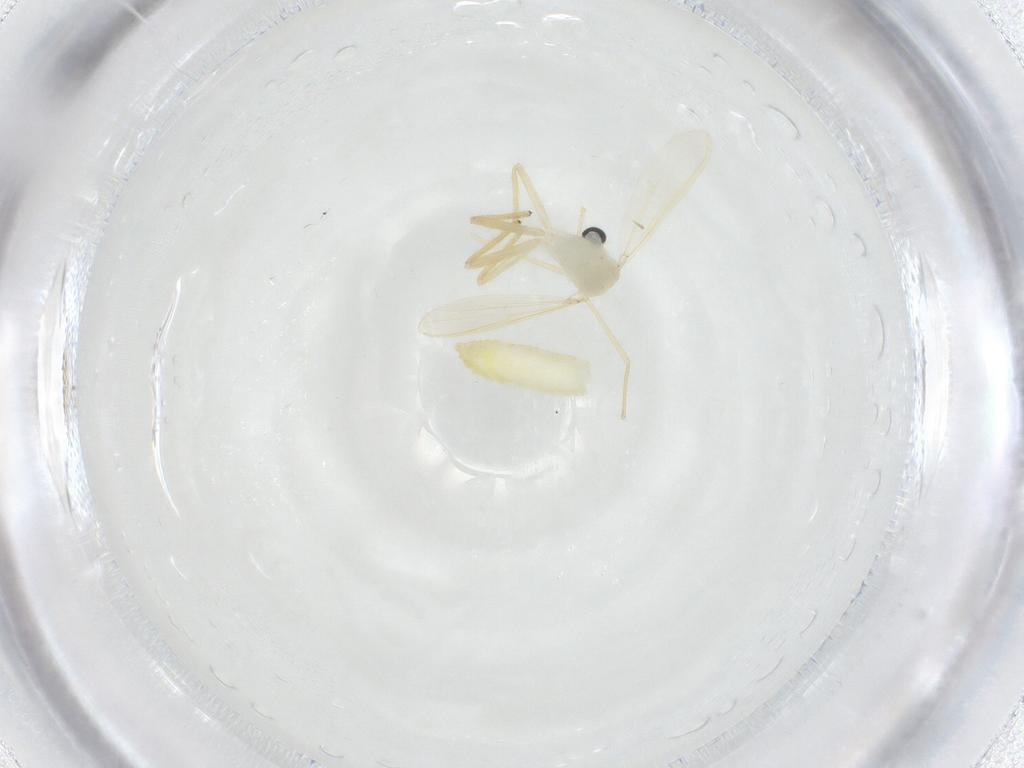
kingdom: Animalia
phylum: Arthropoda
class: Insecta
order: Diptera
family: Chironomidae
